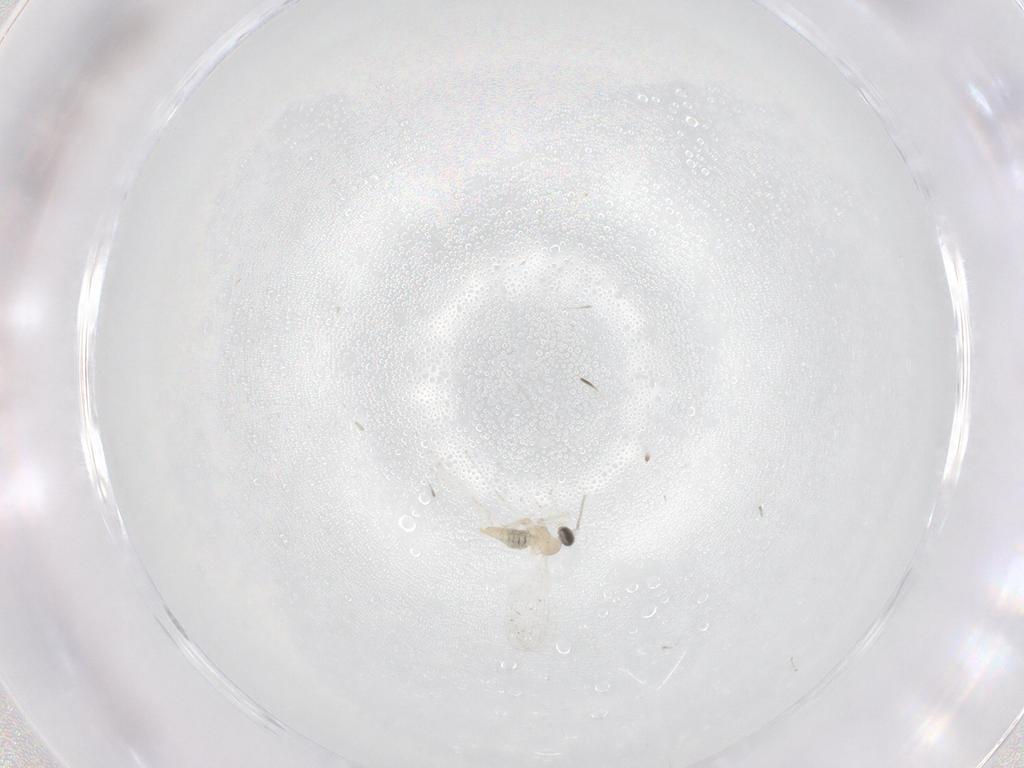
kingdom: Animalia
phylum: Arthropoda
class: Insecta
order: Diptera
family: Cecidomyiidae
